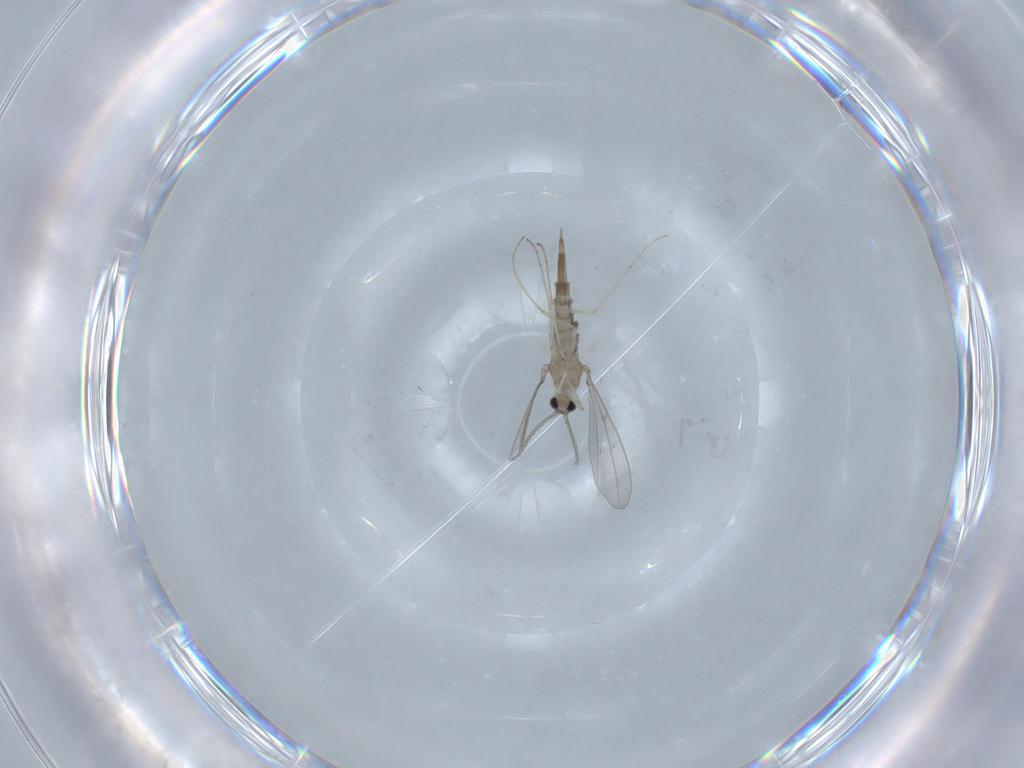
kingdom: Animalia
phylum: Arthropoda
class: Insecta
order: Diptera
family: Cecidomyiidae
